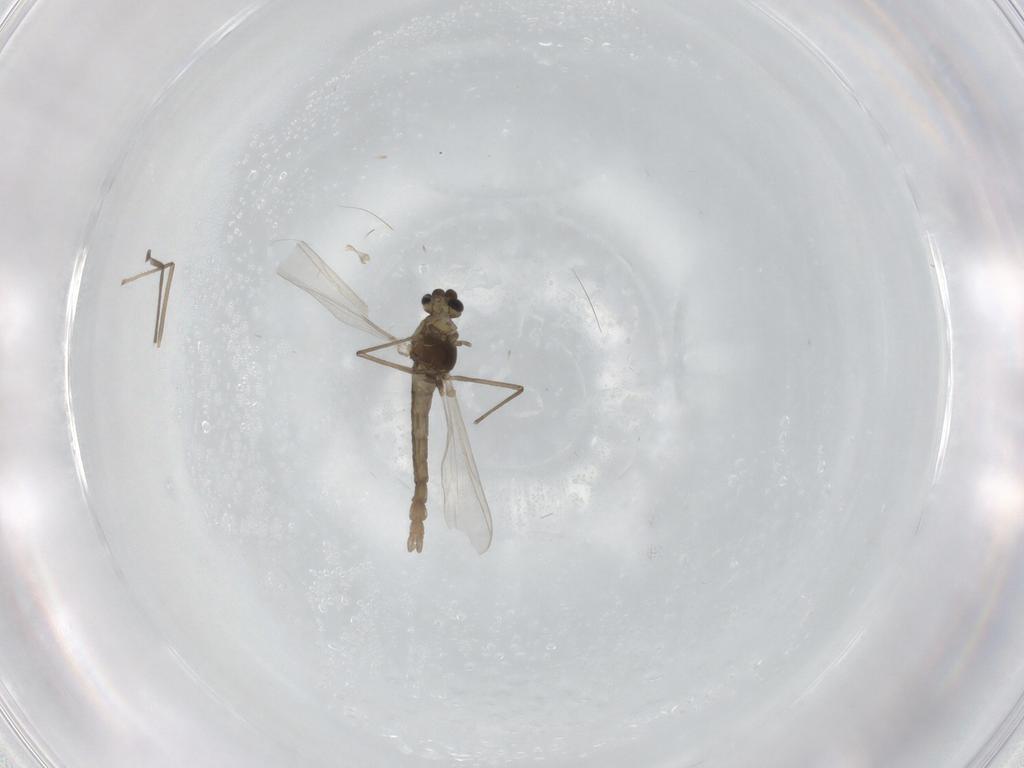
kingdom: Animalia
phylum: Arthropoda
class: Insecta
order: Diptera
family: Chironomidae
